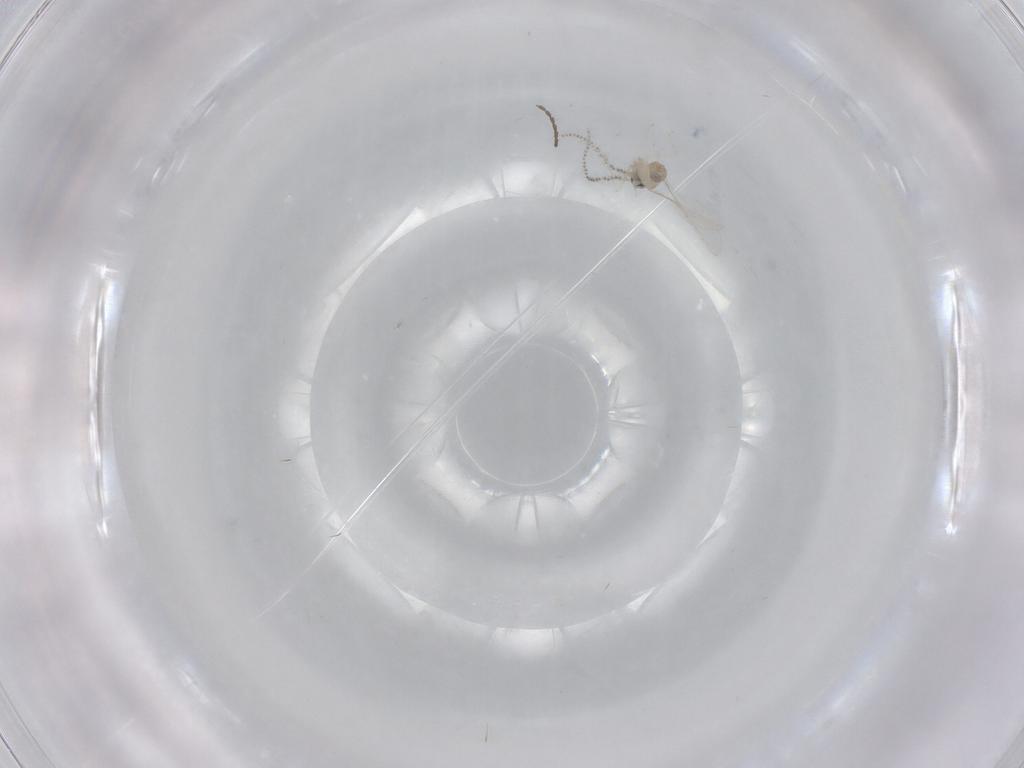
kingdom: Animalia
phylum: Arthropoda
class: Insecta
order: Diptera
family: Cecidomyiidae
